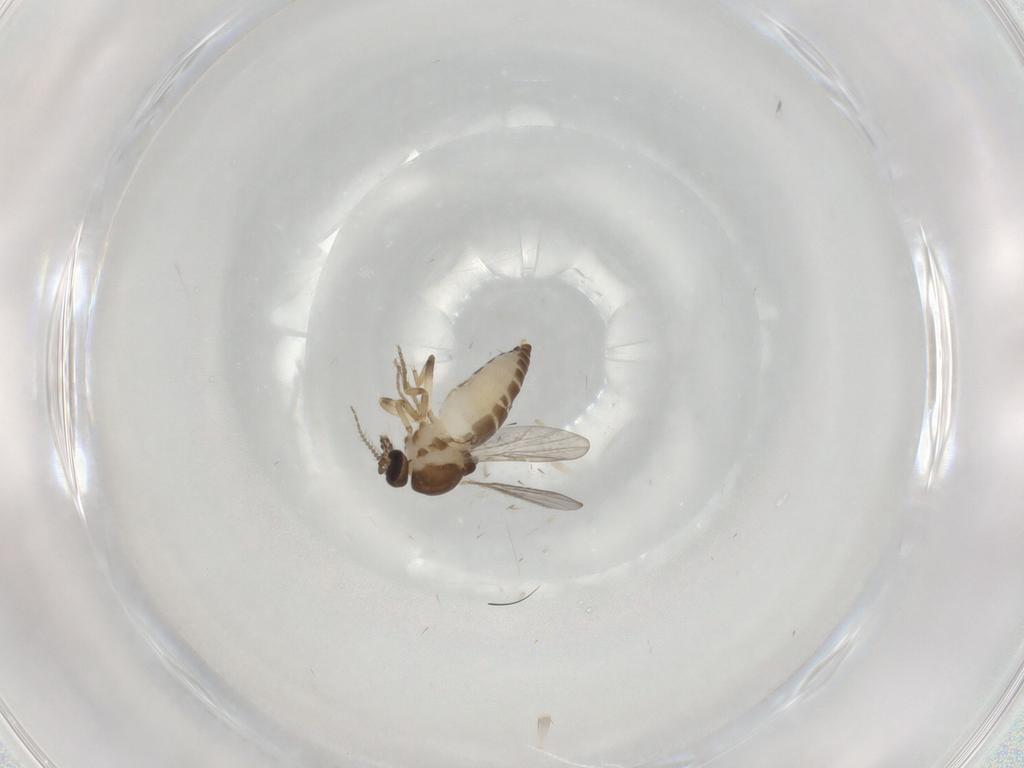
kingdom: Animalia
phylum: Arthropoda
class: Insecta
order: Diptera
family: Ceratopogonidae
